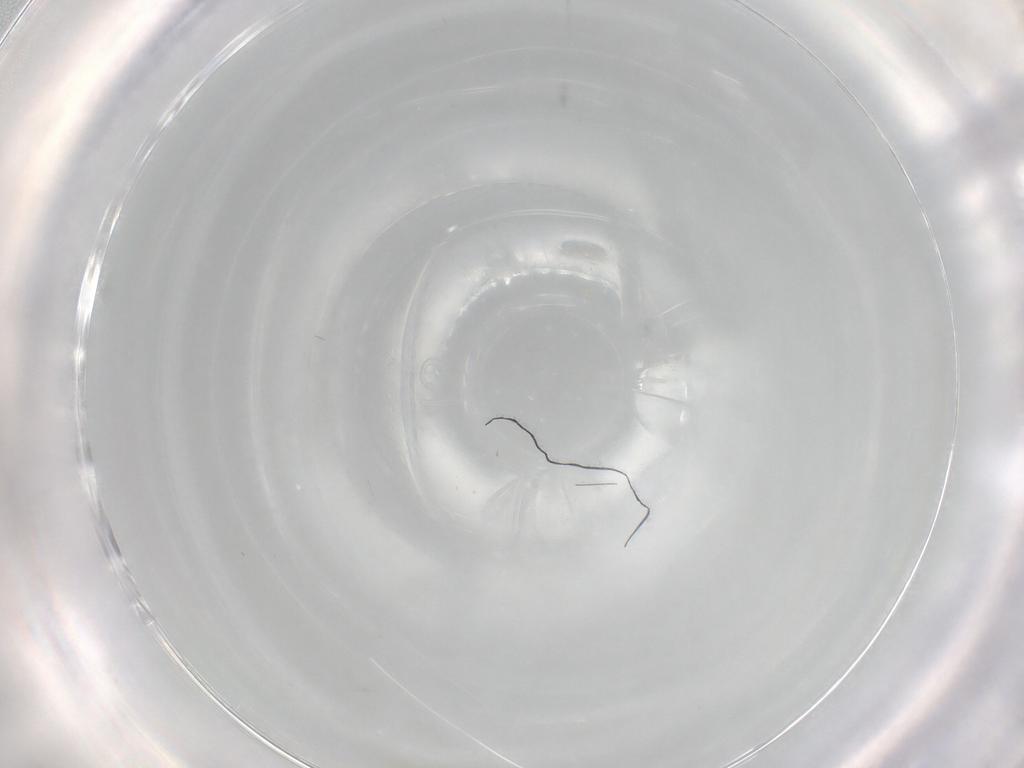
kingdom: Animalia
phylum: Arthropoda
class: Insecta
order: Diptera
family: Cecidomyiidae
